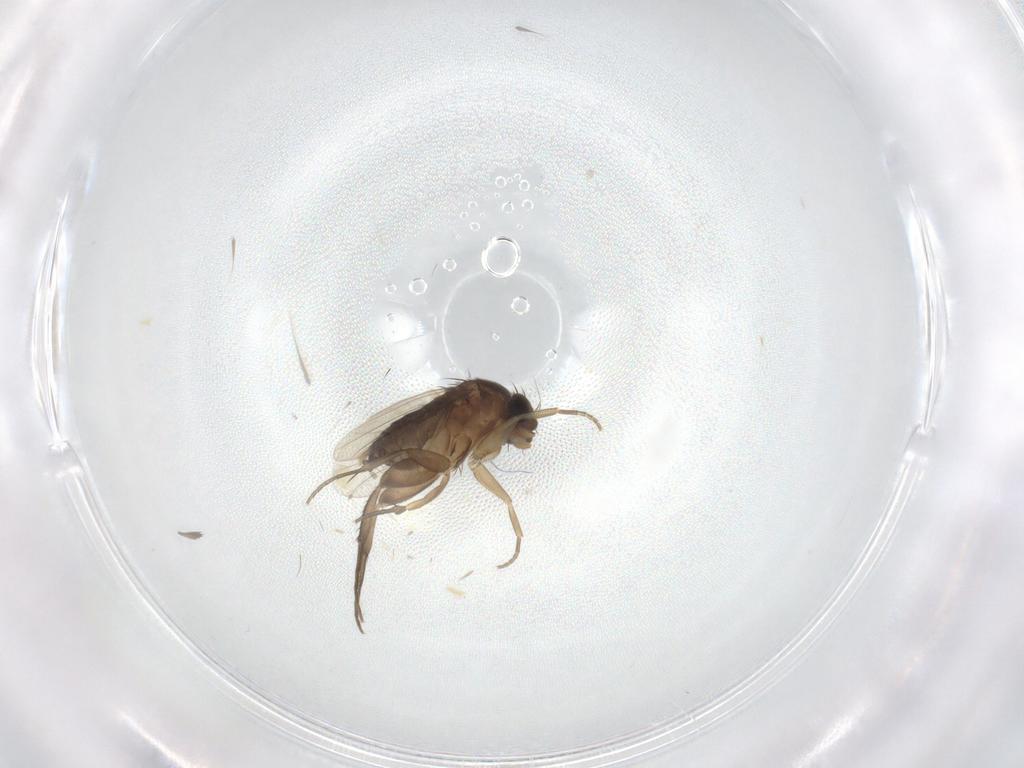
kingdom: Animalia
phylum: Arthropoda
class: Insecta
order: Diptera
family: Phoridae
